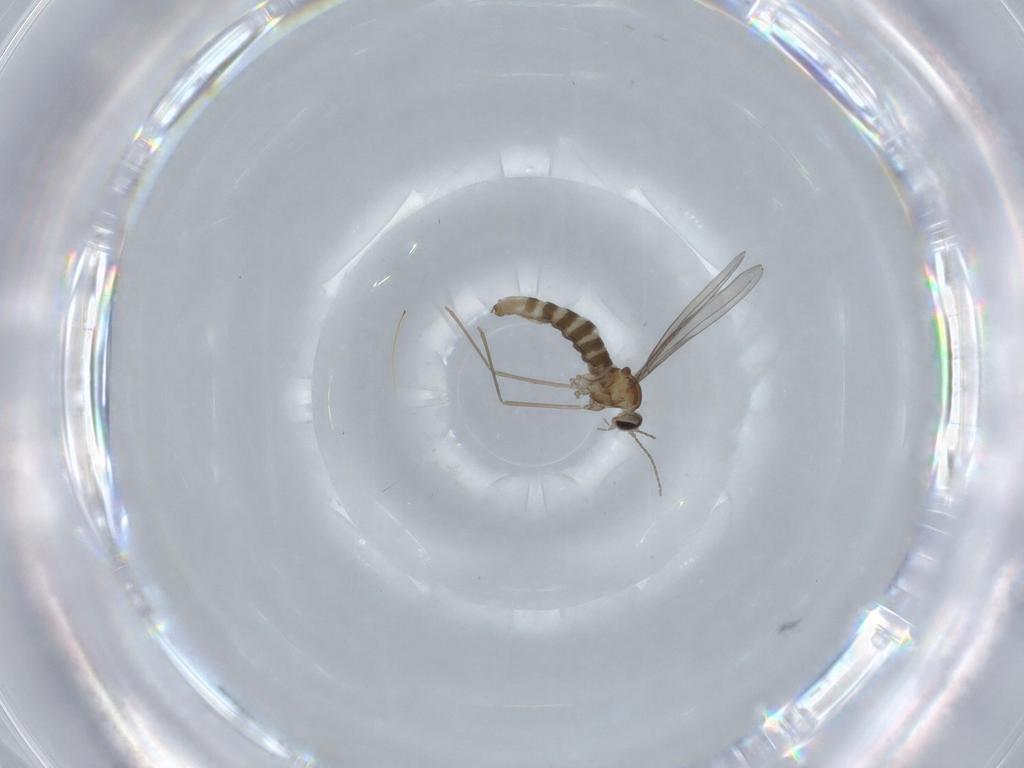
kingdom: Animalia
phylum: Arthropoda
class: Insecta
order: Diptera
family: Cecidomyiidae
